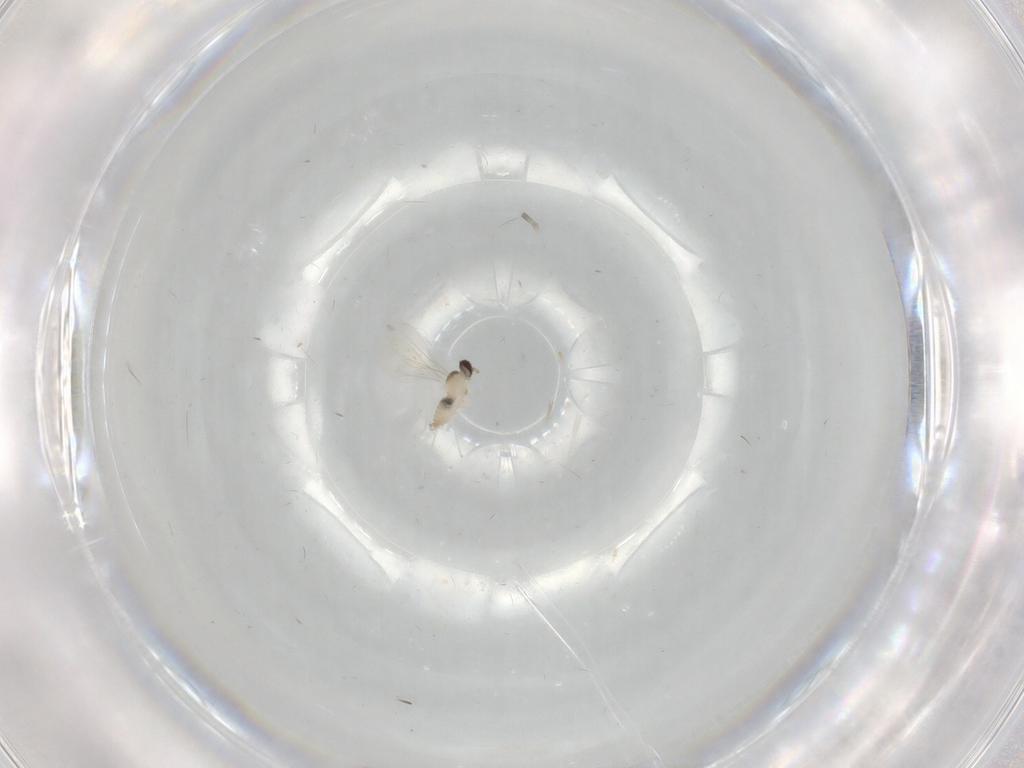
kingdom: Animalia
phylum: Arthropoda
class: Insecta
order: Diptera
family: Cecidomyiidae
